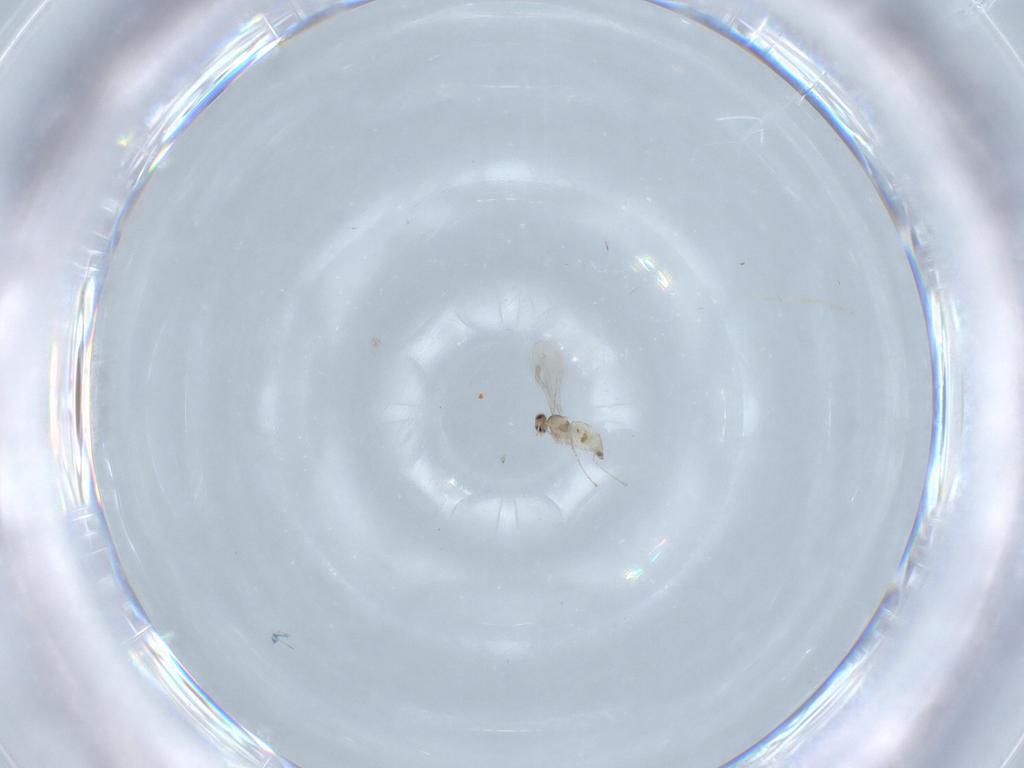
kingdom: Animalia
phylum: Arthropoda
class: Insecta
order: Diptera
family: Cecidomyiidae
